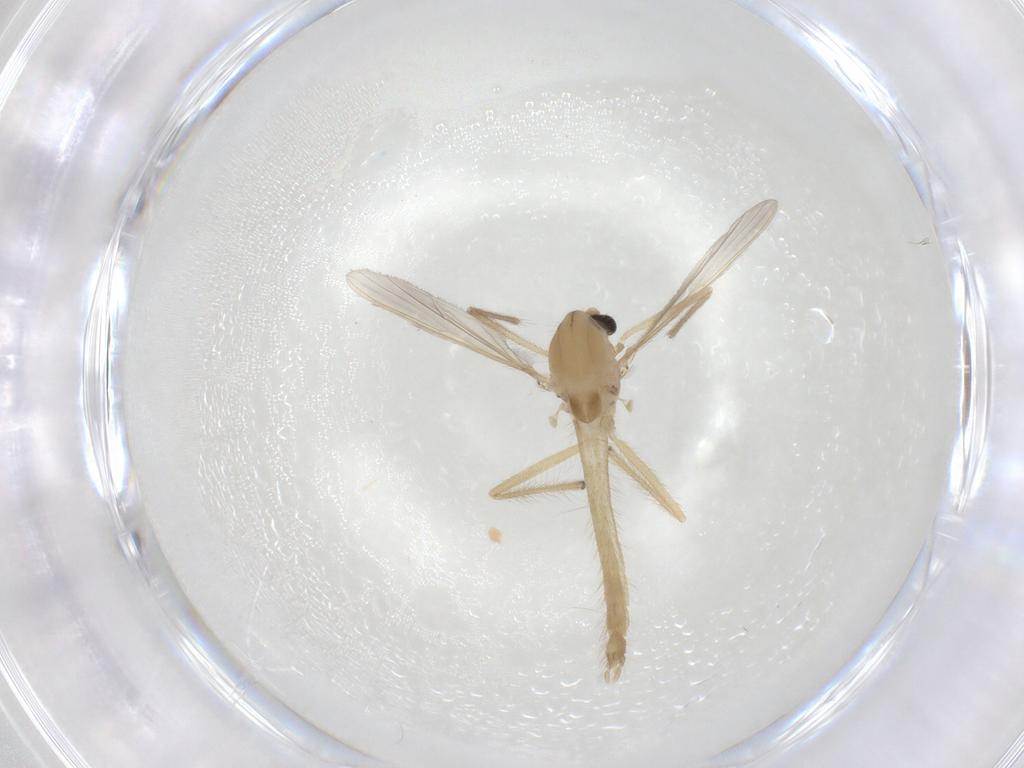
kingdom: Animalia
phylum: Arthropoda
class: Insecta
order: Diptera
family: Chironomidae
